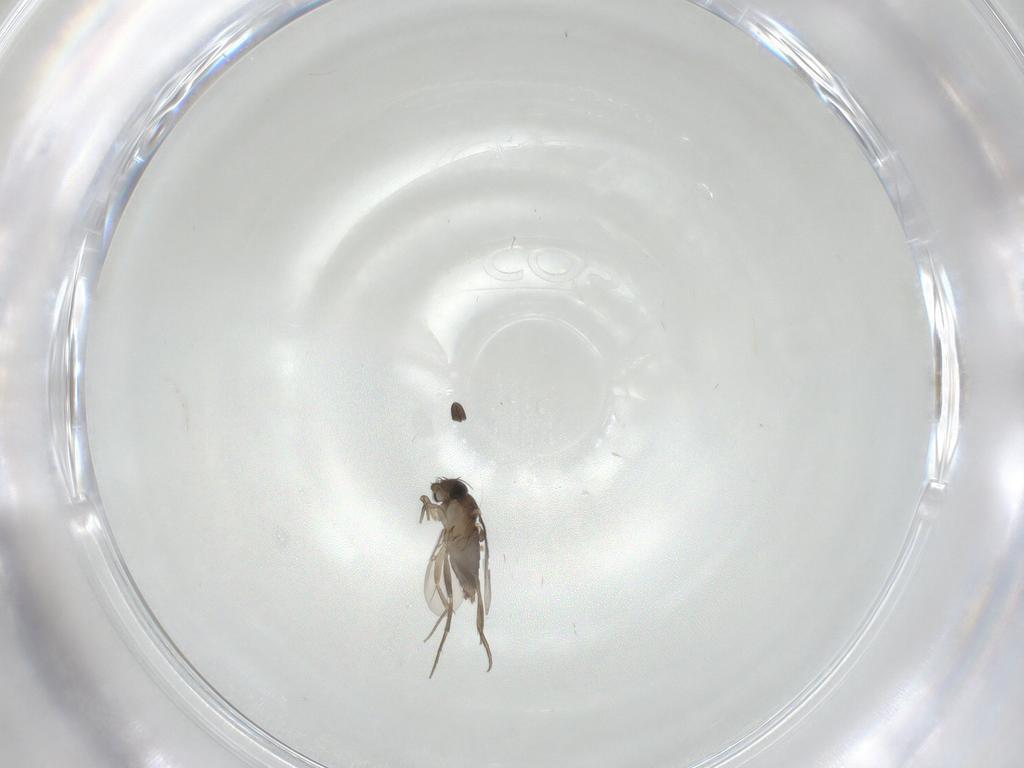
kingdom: Animalia
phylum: Arthropoda
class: Insecta
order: Diptera
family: Phoridae
